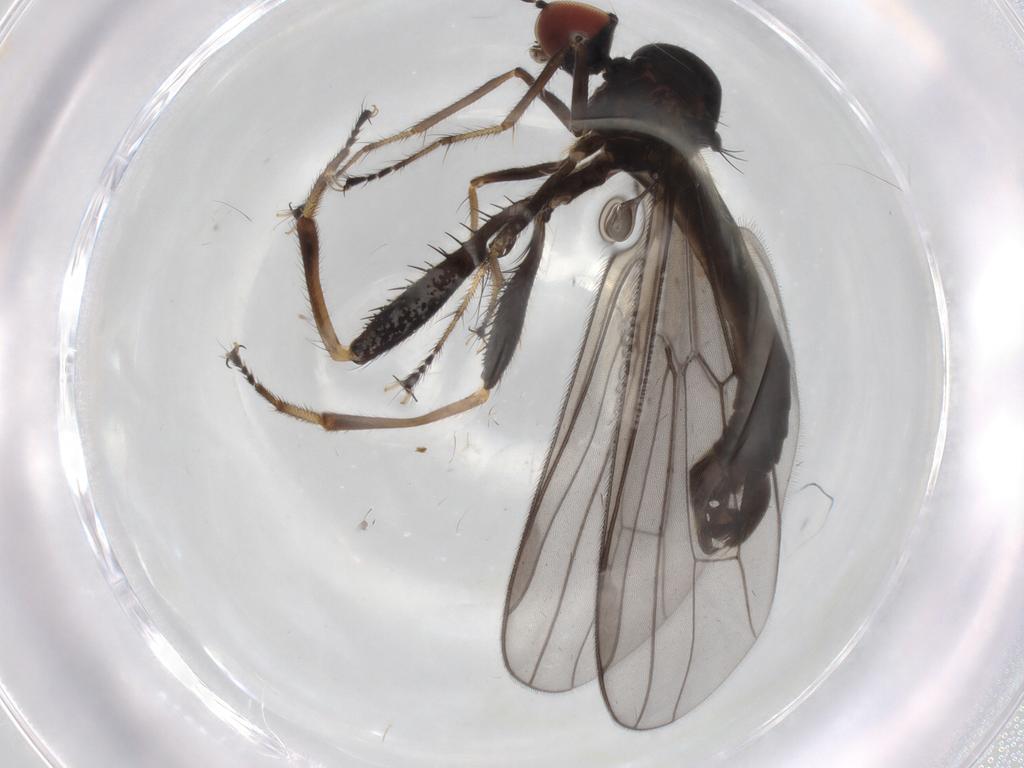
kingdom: Animalia
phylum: Arthropoda
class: Insecta
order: Diptera
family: Hybotidae
